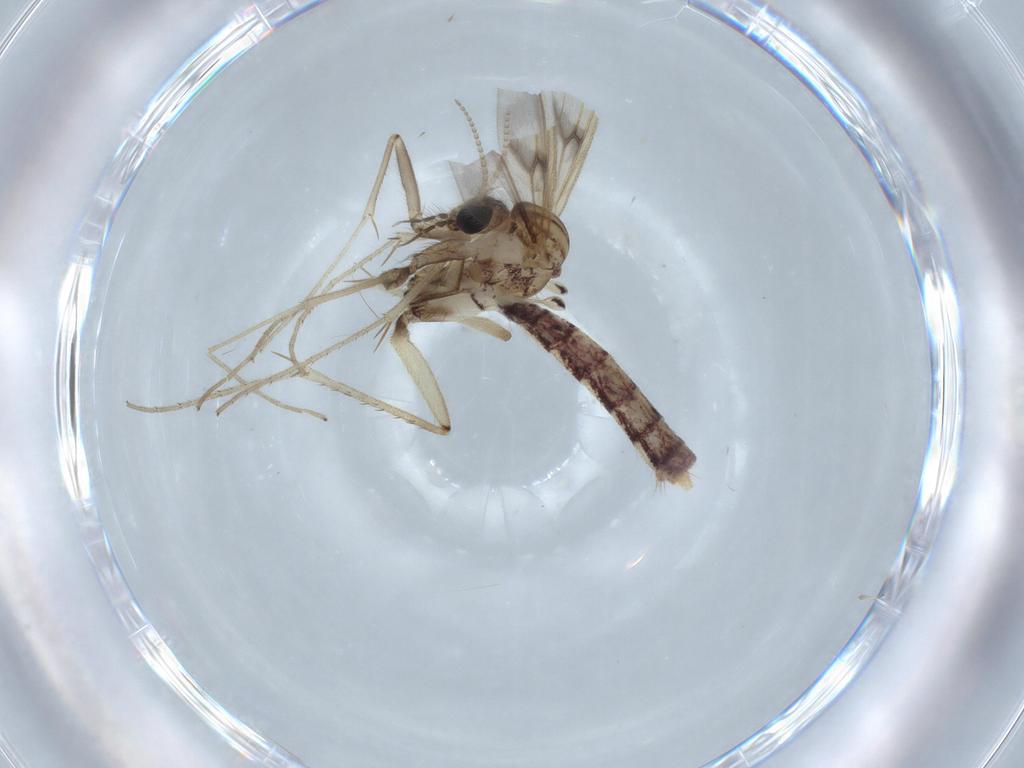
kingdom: Animalia
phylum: Arthropoda
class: Insecta
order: Diptera
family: Mycetophilidae
